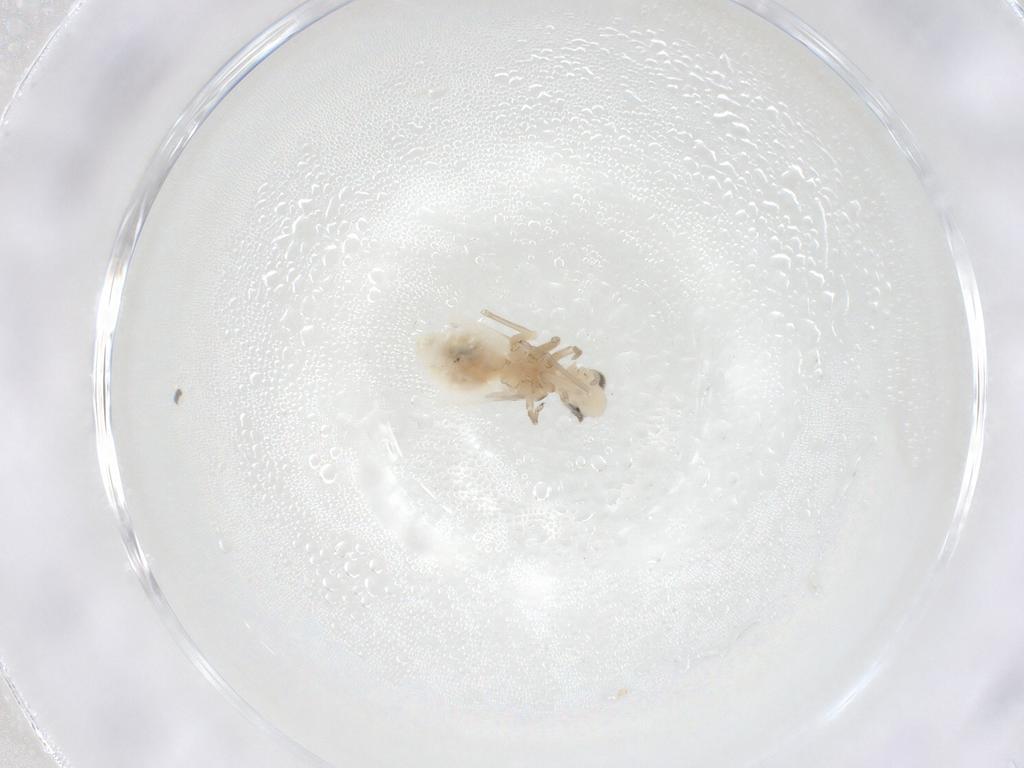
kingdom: Animalia
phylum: Arthropoda
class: Insecta
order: Psocodea
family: Caeciliusidae
